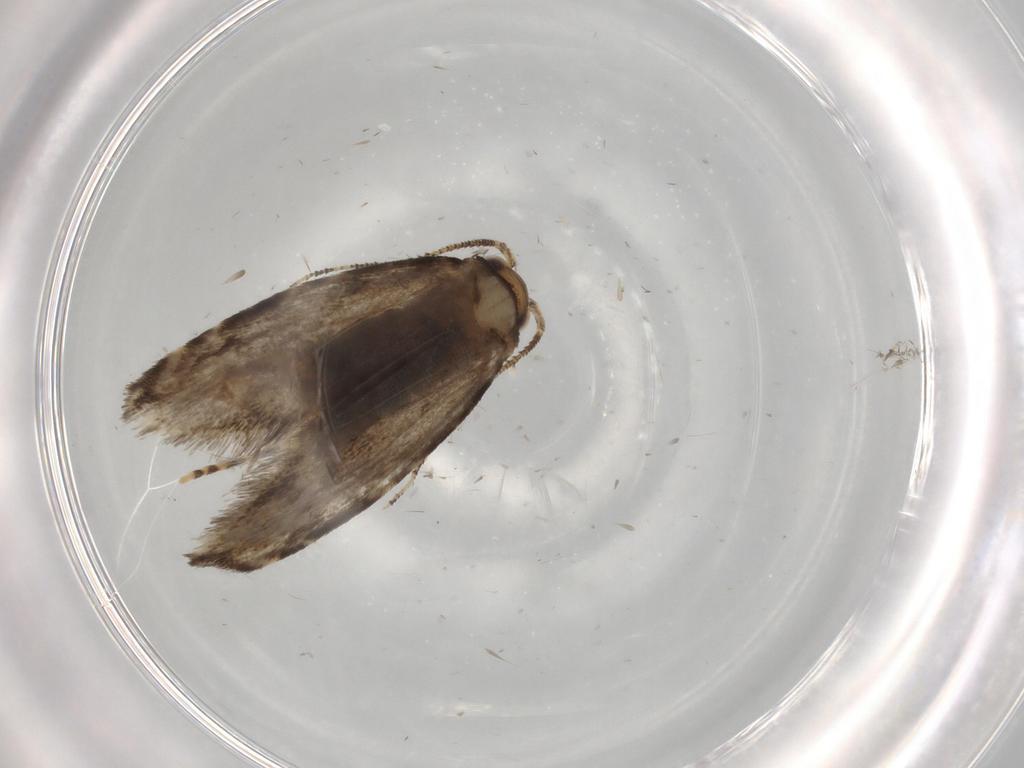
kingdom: Animalia
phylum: Arthropoda
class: Insecta
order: Lepidoptera
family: Tineidae
